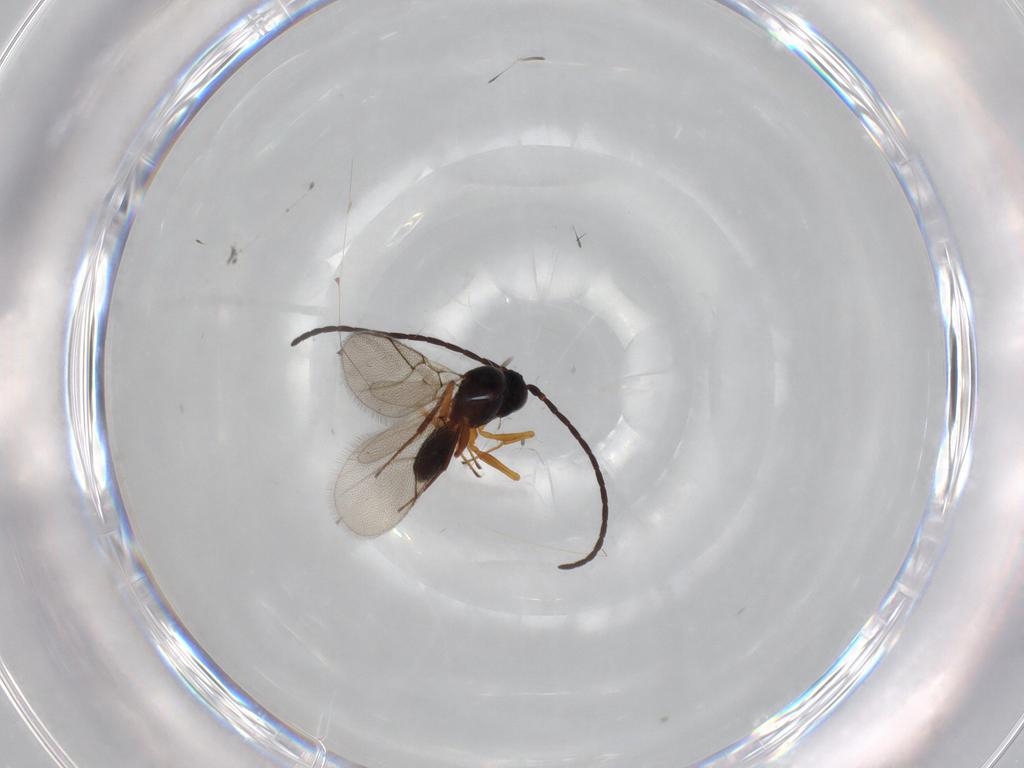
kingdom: Animalia
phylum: Arthropoda
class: Insecta
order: Hymenoptera
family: Figitidae
